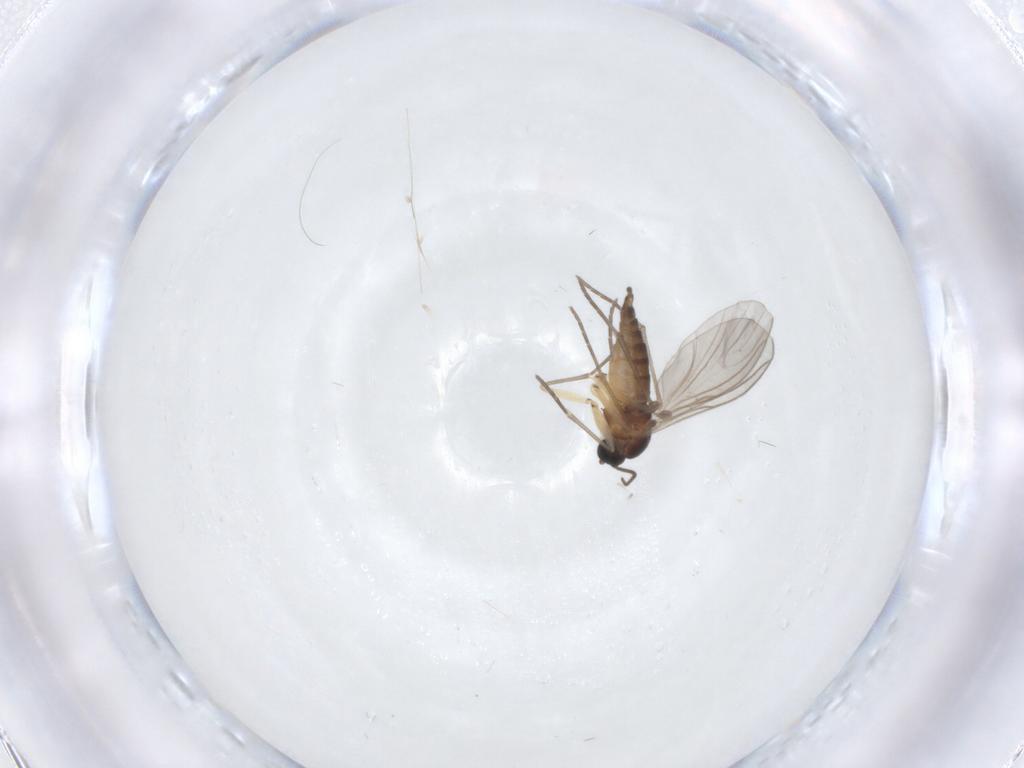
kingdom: Animalia
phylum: Arthropoda
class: Insecta
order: Diptera
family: Sciaridae
